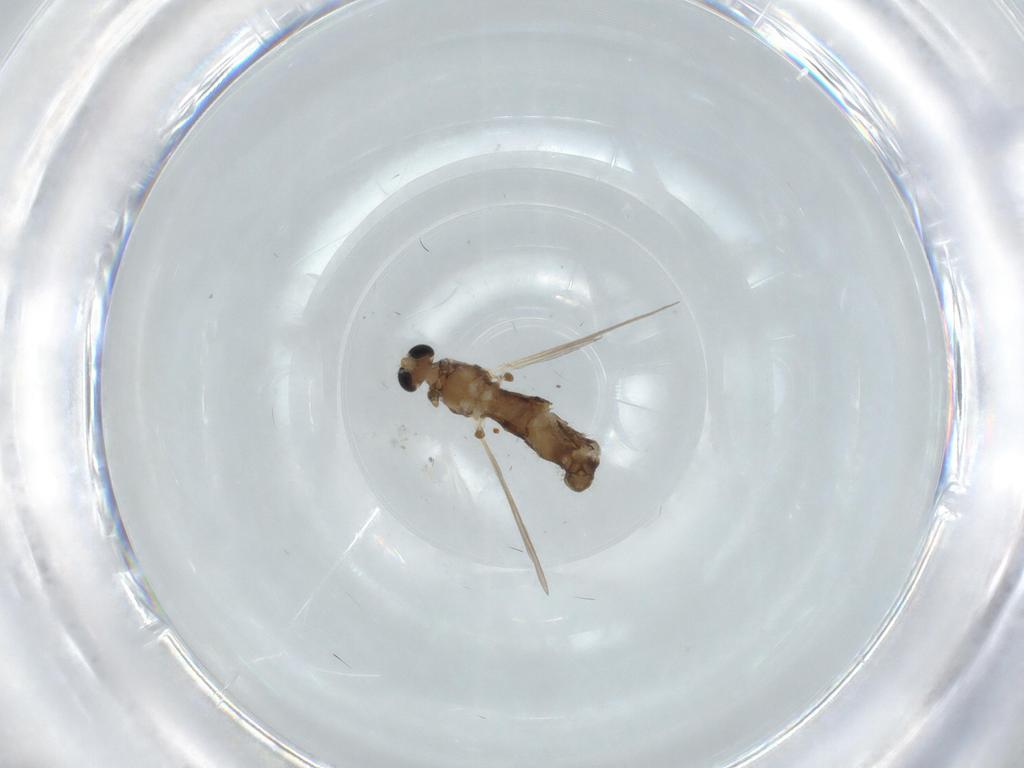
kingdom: Animalia
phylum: Arthropoda
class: Insecta
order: Diptera
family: Chironomidae
